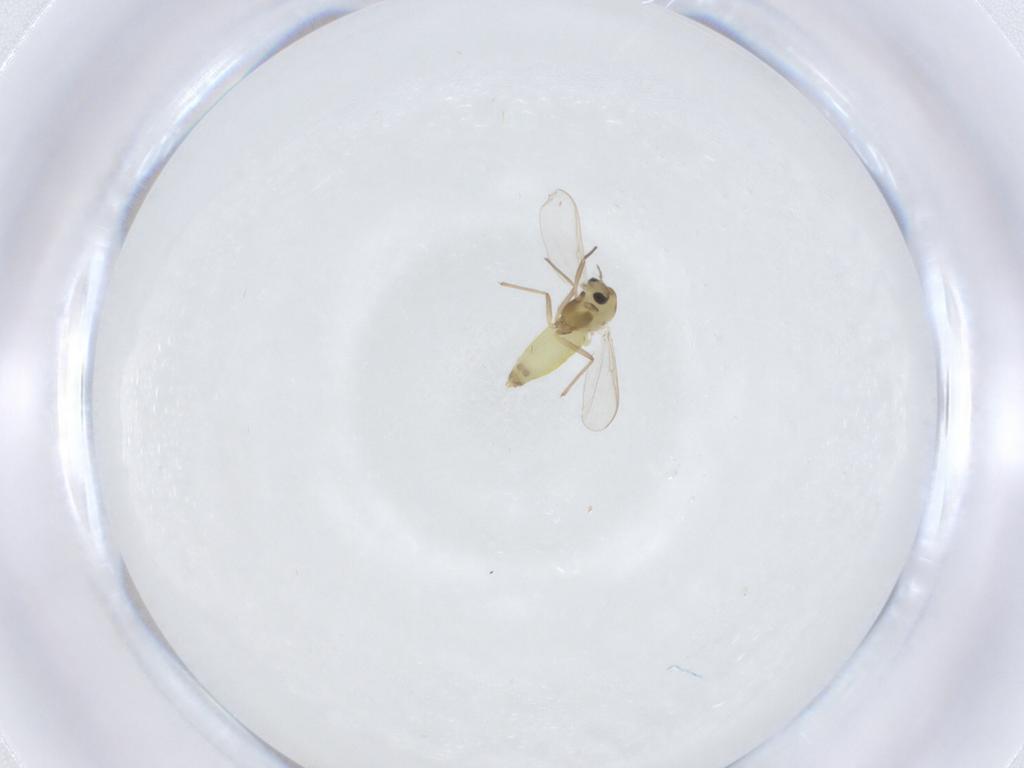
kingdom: Animalia
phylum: Arthropoda
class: Insecta
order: Diptera
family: Chironomidae
